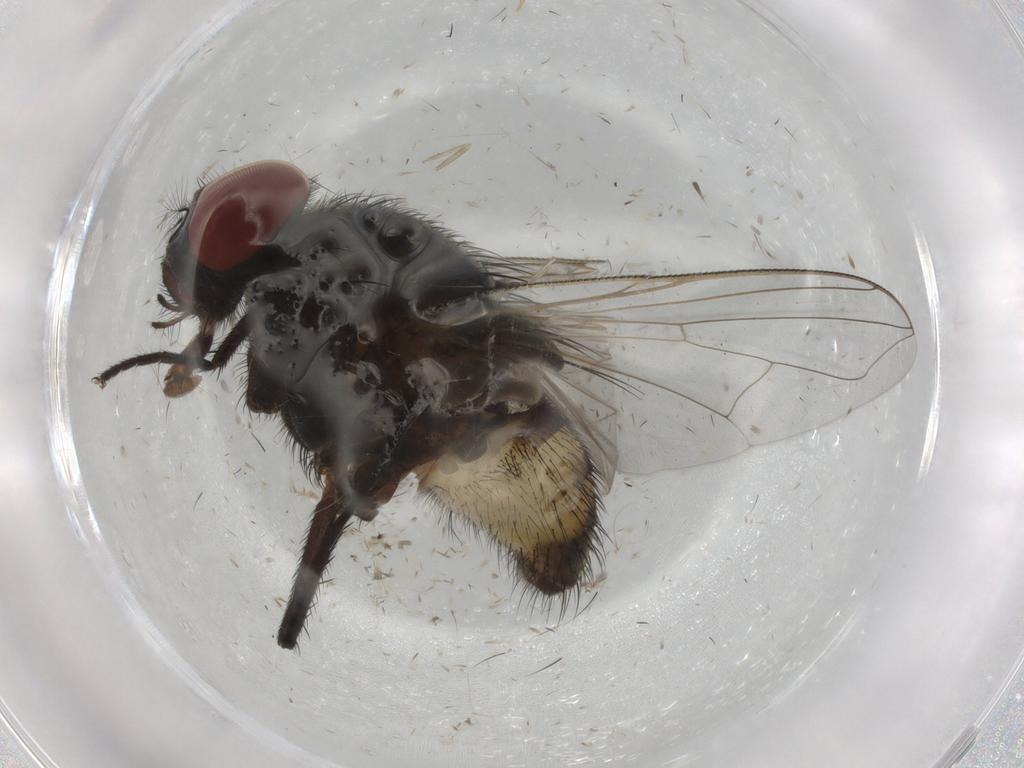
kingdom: Animalia
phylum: Arthropoda
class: Insecta
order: Diptera
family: Muscidae
